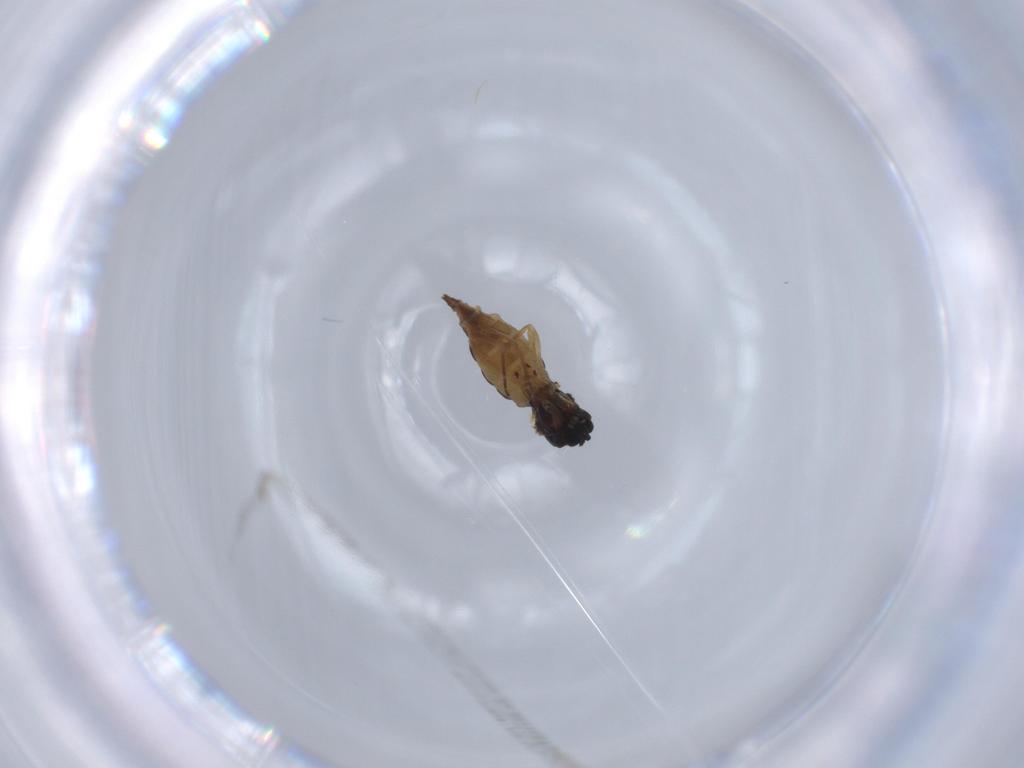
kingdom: Animalia
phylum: Arthropoda
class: Insecta
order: Diptera
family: Sciaridae
